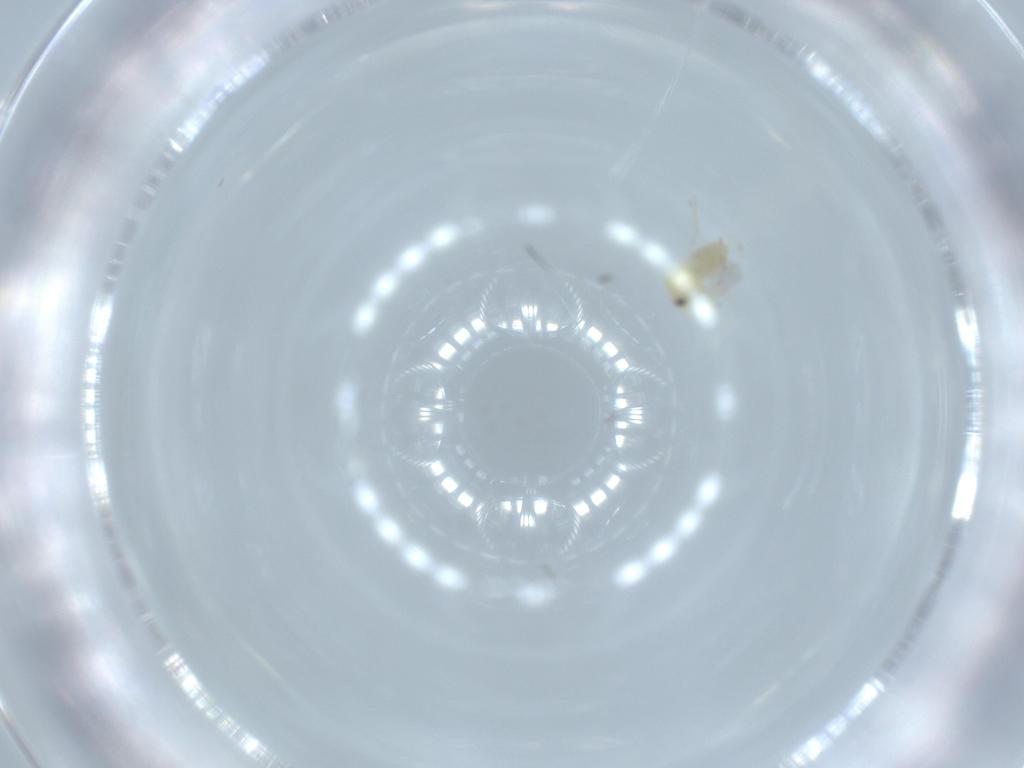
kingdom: Animalia
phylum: Arthropoda
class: Insecta
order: Hemiptera
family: Aleyrodidae
